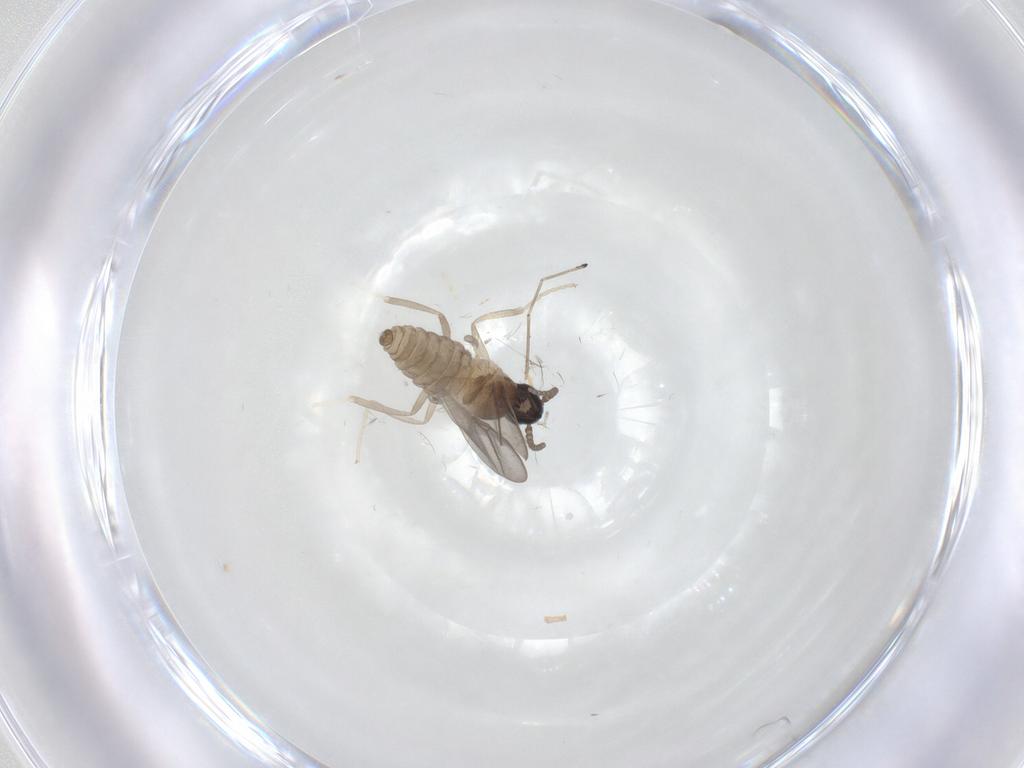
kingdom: Animalia
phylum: Arthropoda
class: Insecta
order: Diptera
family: Cecidomyiidae
